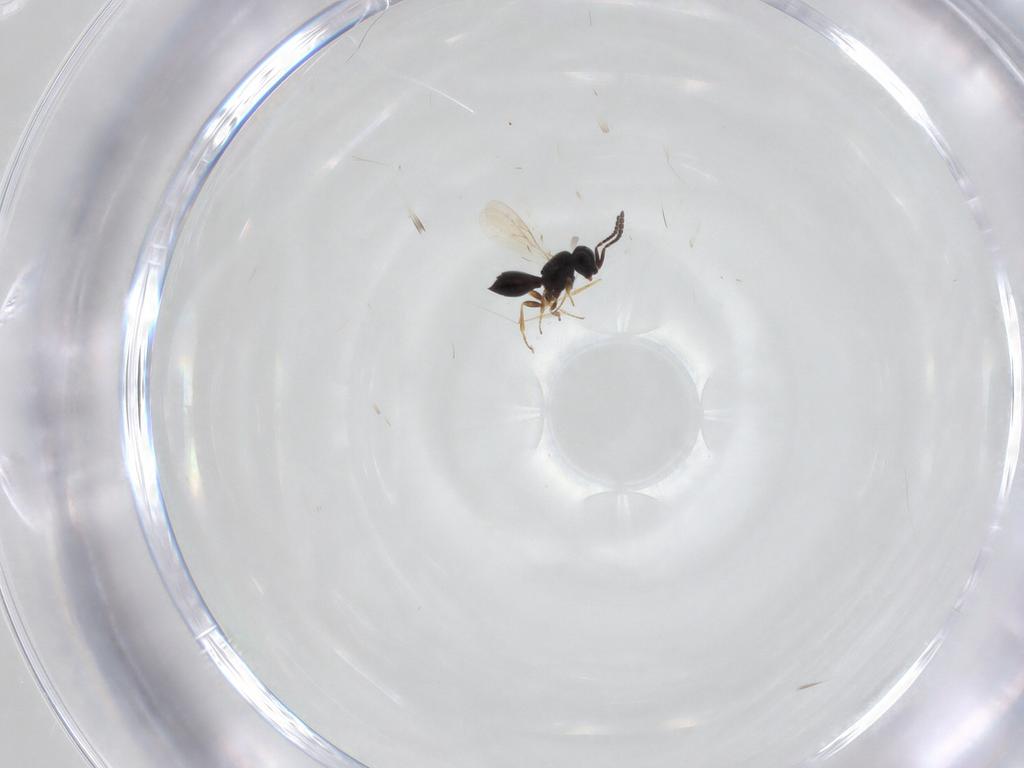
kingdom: Animalia
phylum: Arthropoda
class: Insecta
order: Hymenoptera
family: Scelionidae
